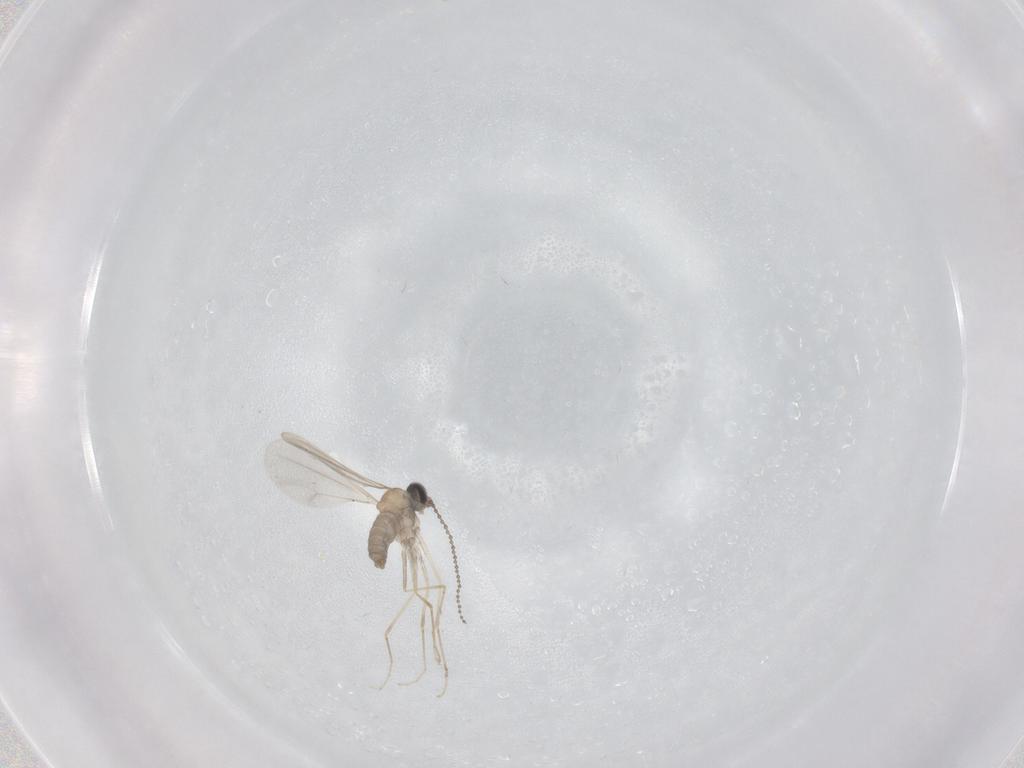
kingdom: Animalia
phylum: Arthropoda
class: Insecta
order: Diptera
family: Cecidomyiidae
